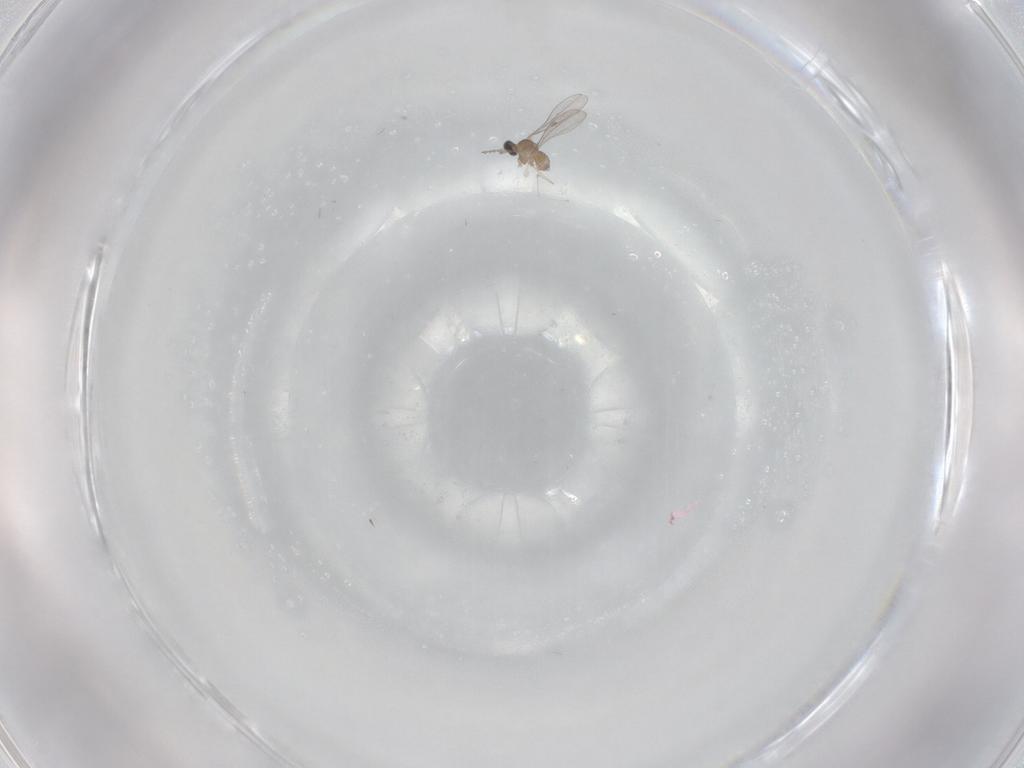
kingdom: Animalia
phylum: Arthropoda
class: Insecta
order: Diptera
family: Cecidomyiidae
